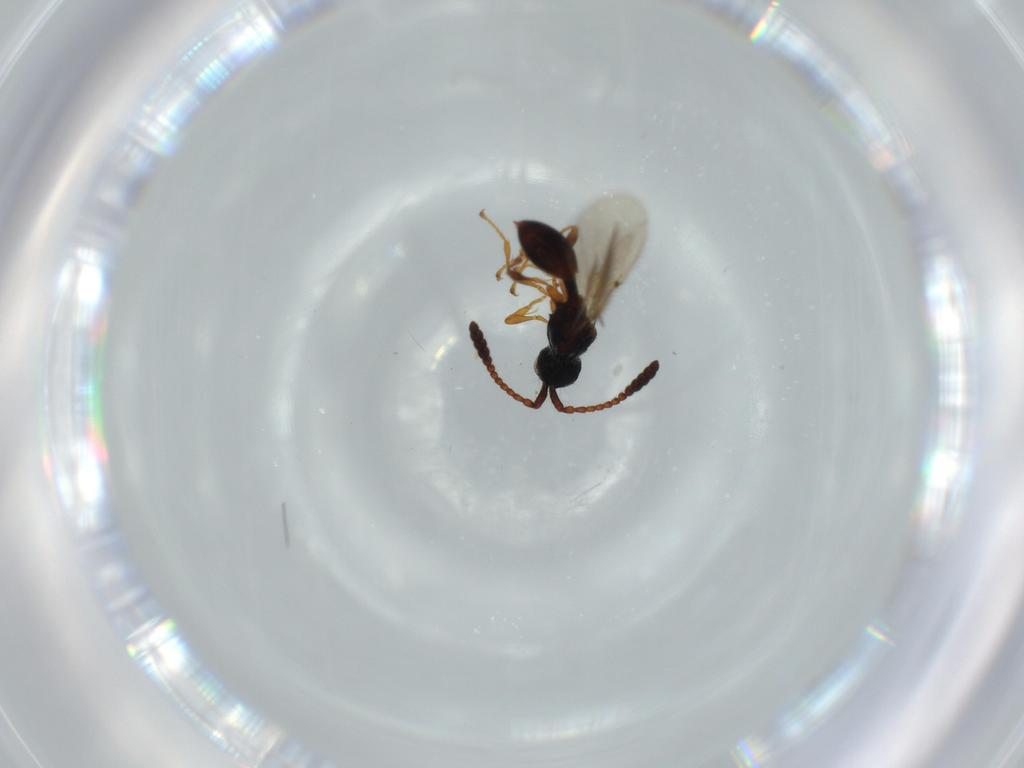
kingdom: Animalia
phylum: Arthropoda
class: Insecta
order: Hymenoptera
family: Diapriidae
